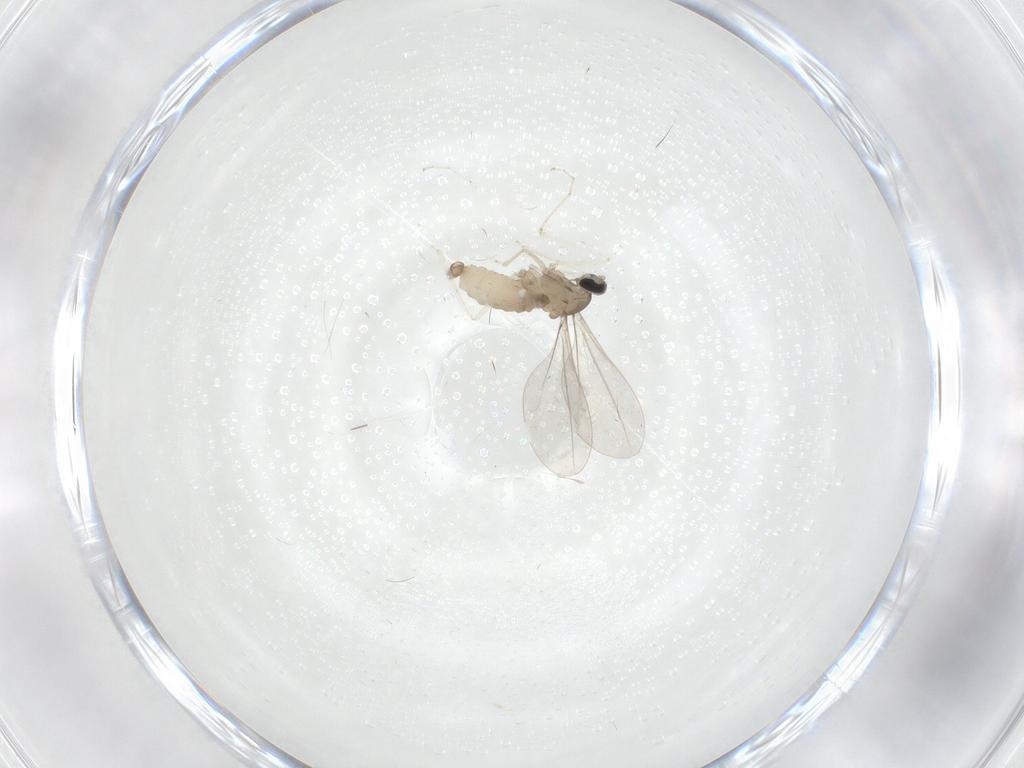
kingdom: Animalia
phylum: Arthropoda
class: Insecta
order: Diptera
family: Cecidomyiidae
